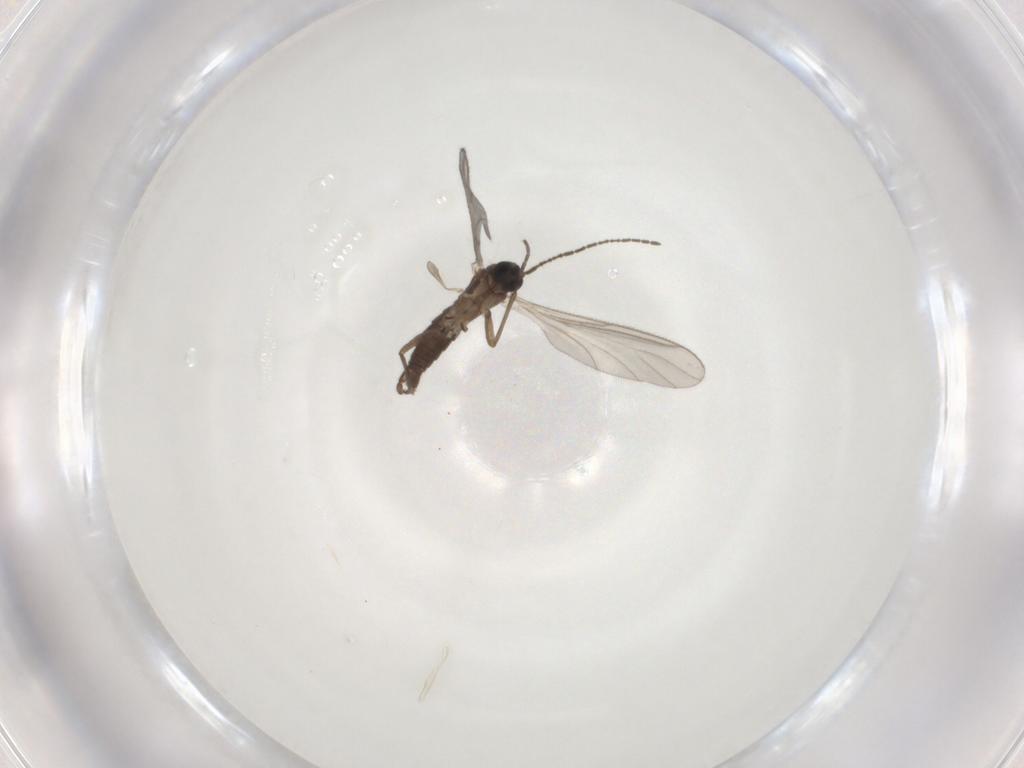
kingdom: Animalia
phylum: Arthropoda
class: Insecta
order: Diptera
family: Sciaridae
